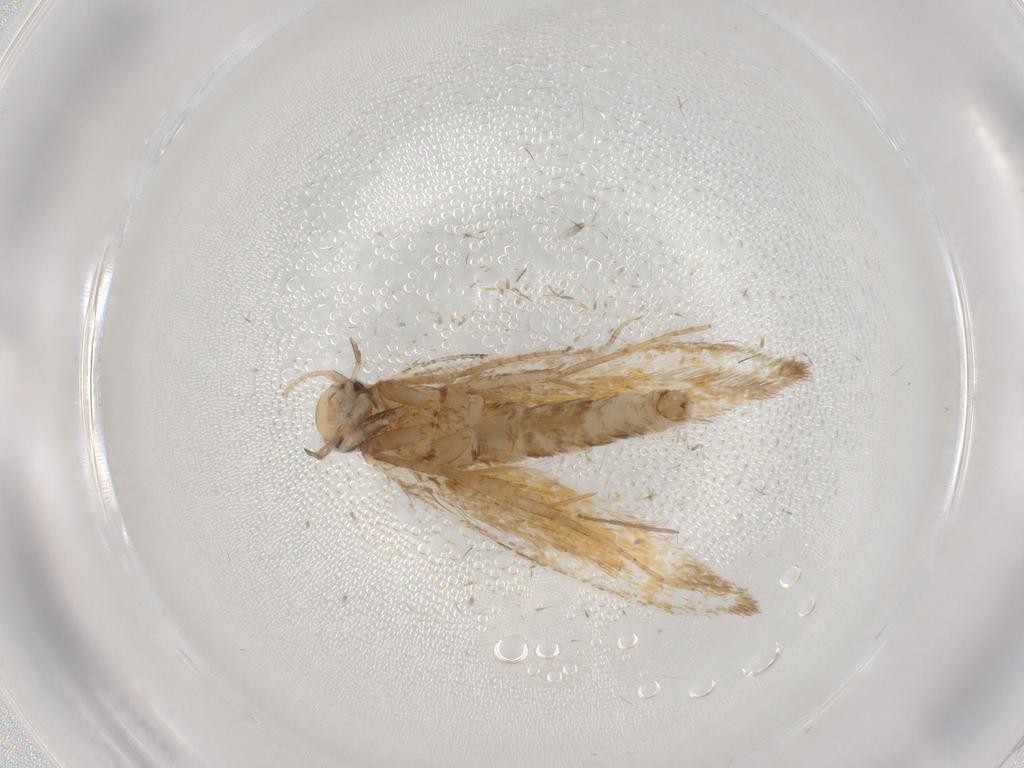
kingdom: Animalia
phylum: Arthropoda
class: Insecta
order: Lepidoptera
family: Tineidae
